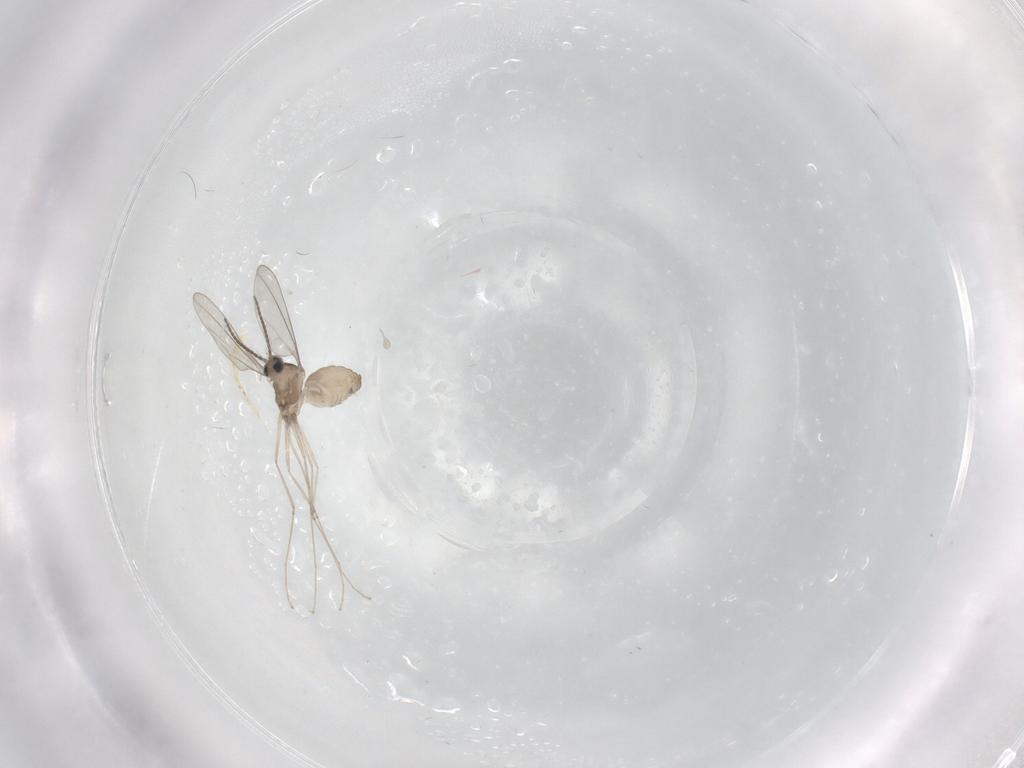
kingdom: Animalia
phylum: Arthropoda
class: Insecta
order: Diptera
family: Cecidomyiidae
